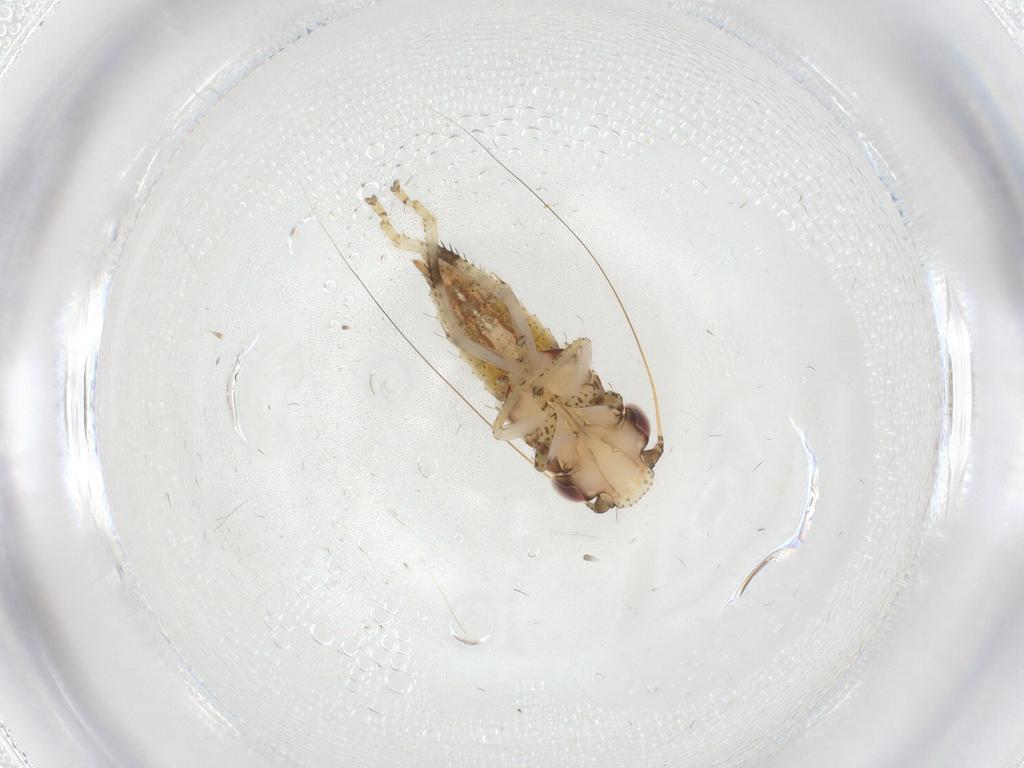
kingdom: Animalia
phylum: Arthropoda
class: Insecta
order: Hemiptera
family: Cicadellidae
